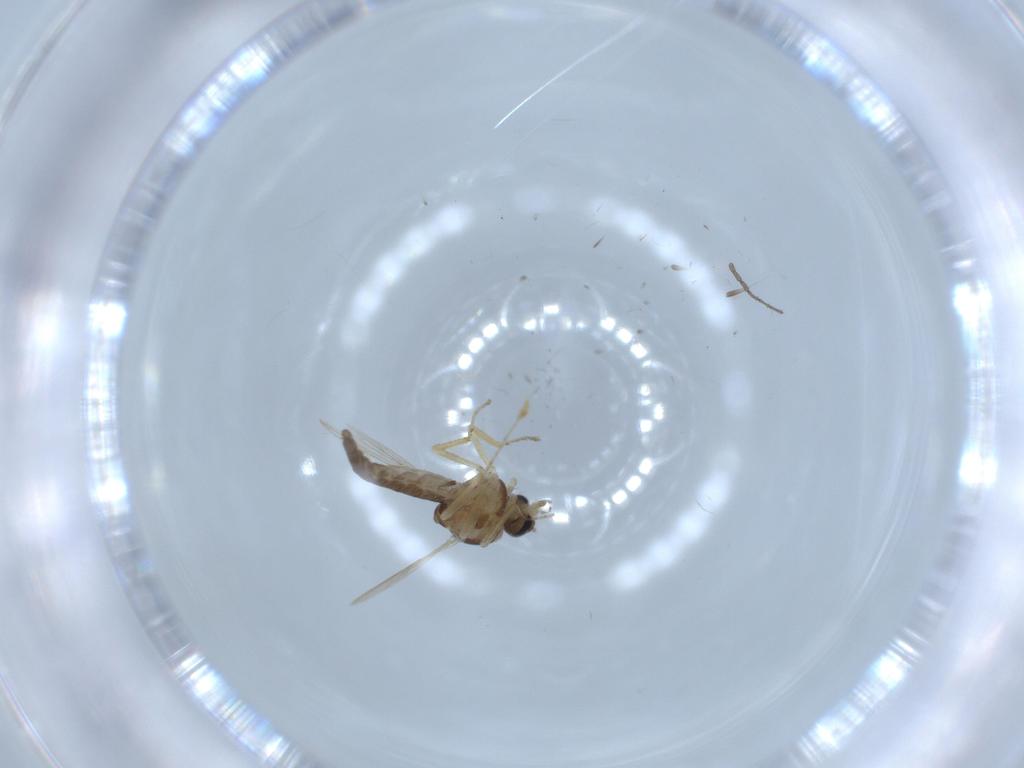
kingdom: Animalia
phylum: Arthropoda
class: Insecta
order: Diptera
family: Ceratopogonidae
